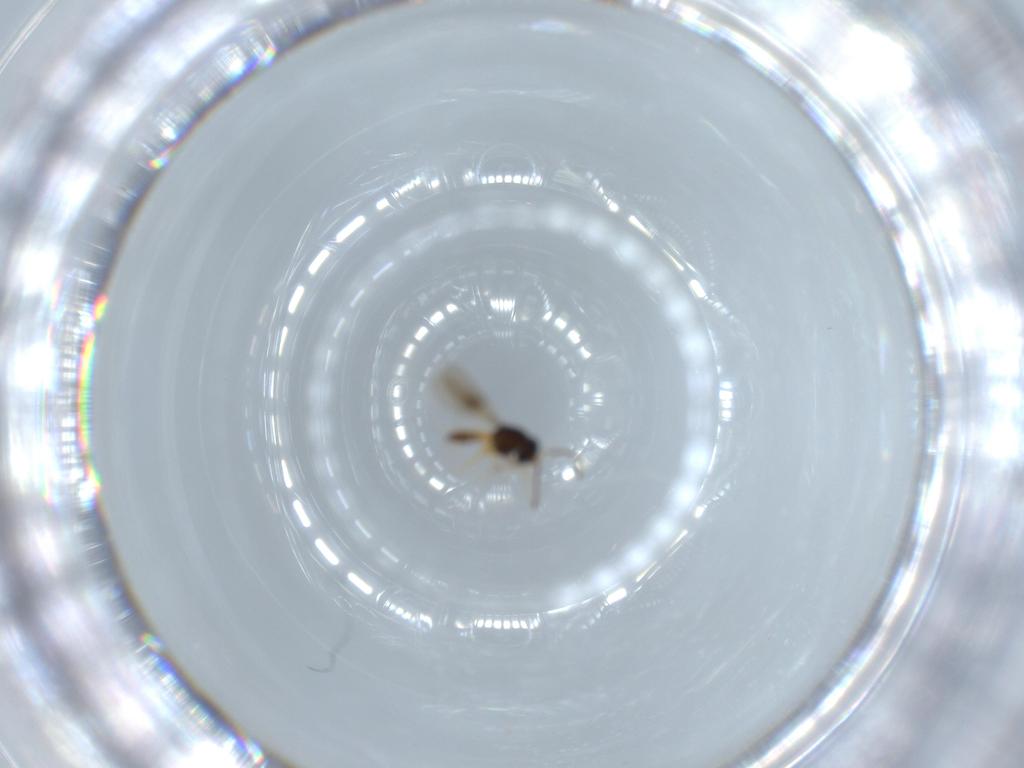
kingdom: Animalia
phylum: Arthropoda
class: Insecta
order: Hymenoptera
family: Scelionidae
